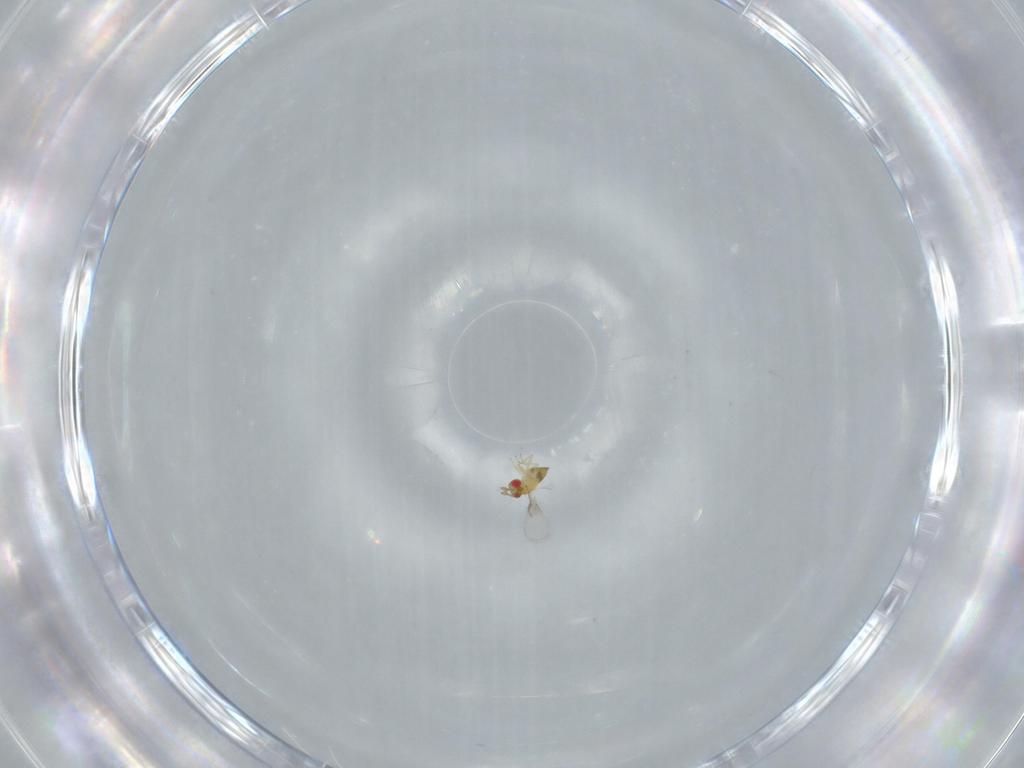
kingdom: Animalia
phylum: Arthropoda
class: Insecta
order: Hymenoptera
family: Trichogrammatidae
